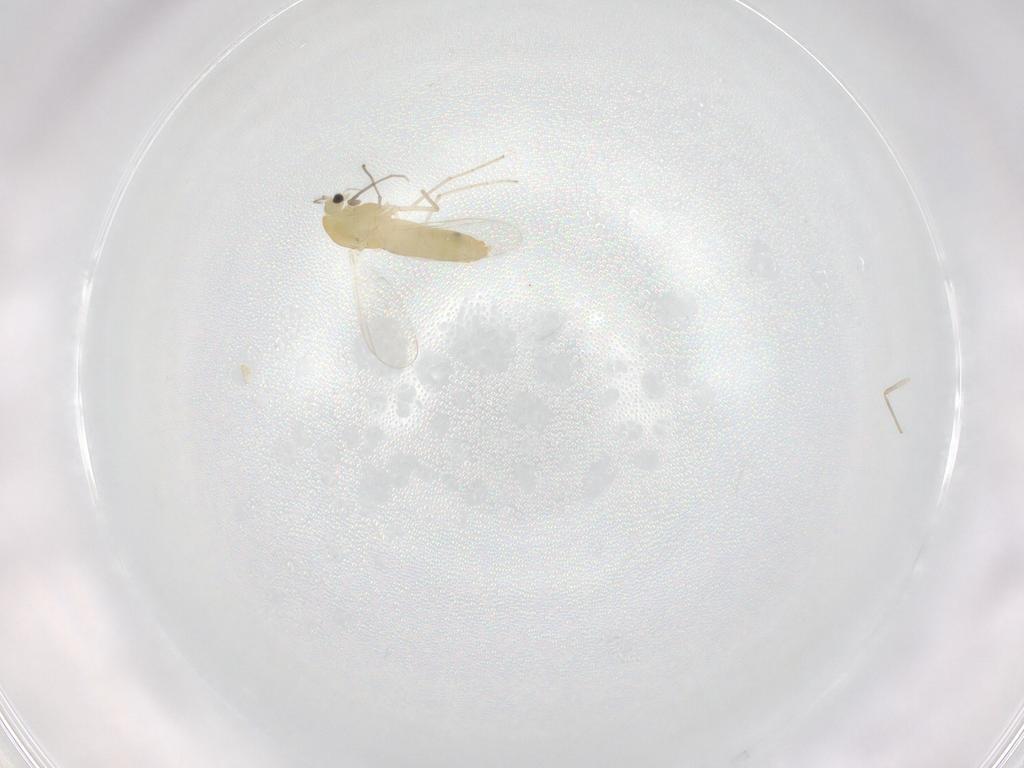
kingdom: Animalia
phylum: Arthropoda
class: Insecta
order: Diptera
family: Chironomidae
